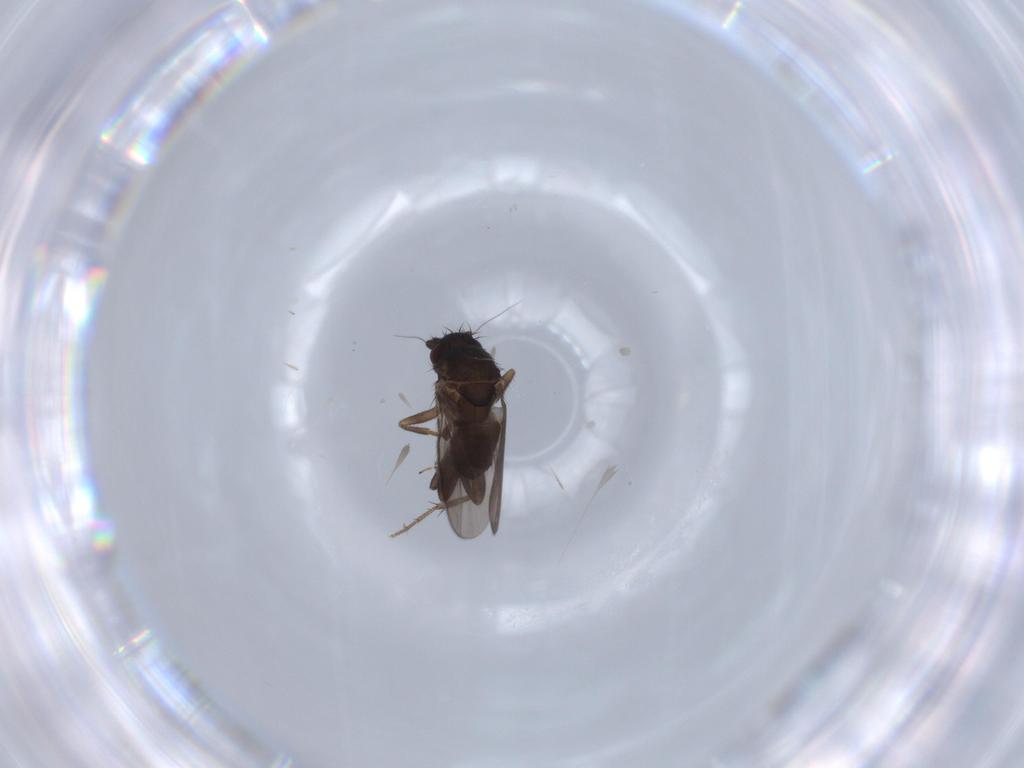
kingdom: Animalia
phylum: Arthropoda
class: Insecta
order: Diptera
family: Sphaeroceridae
